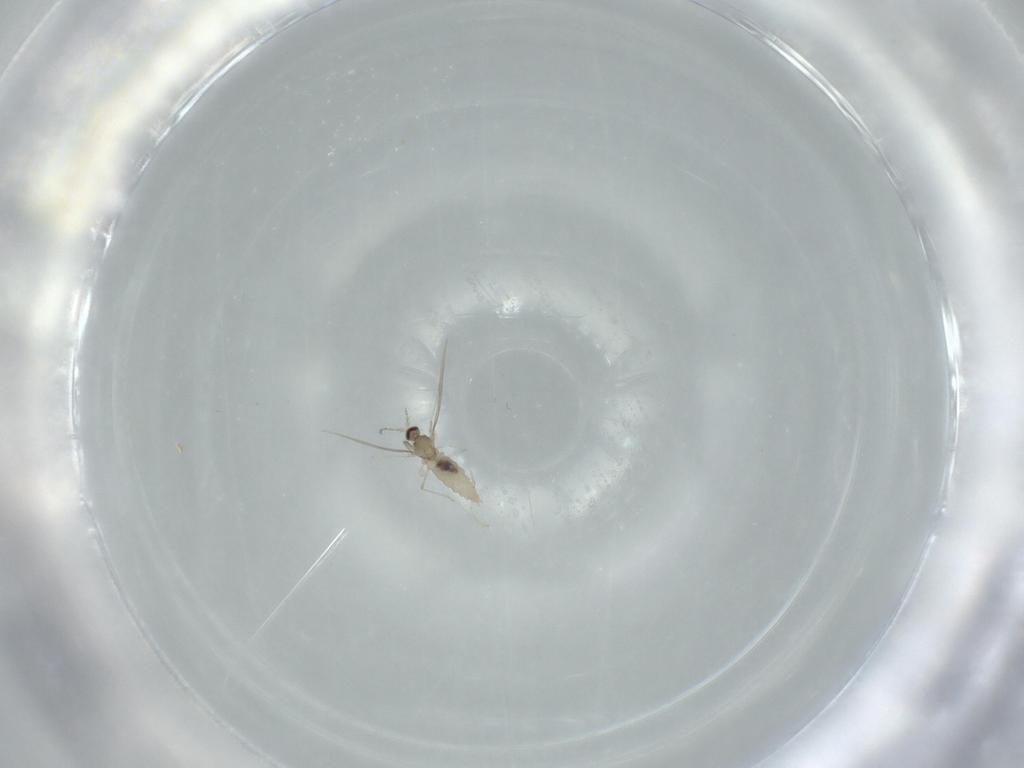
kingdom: Animalia
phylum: Arthropoda
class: Insecta
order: Diptera
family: Cecidomyiidae
